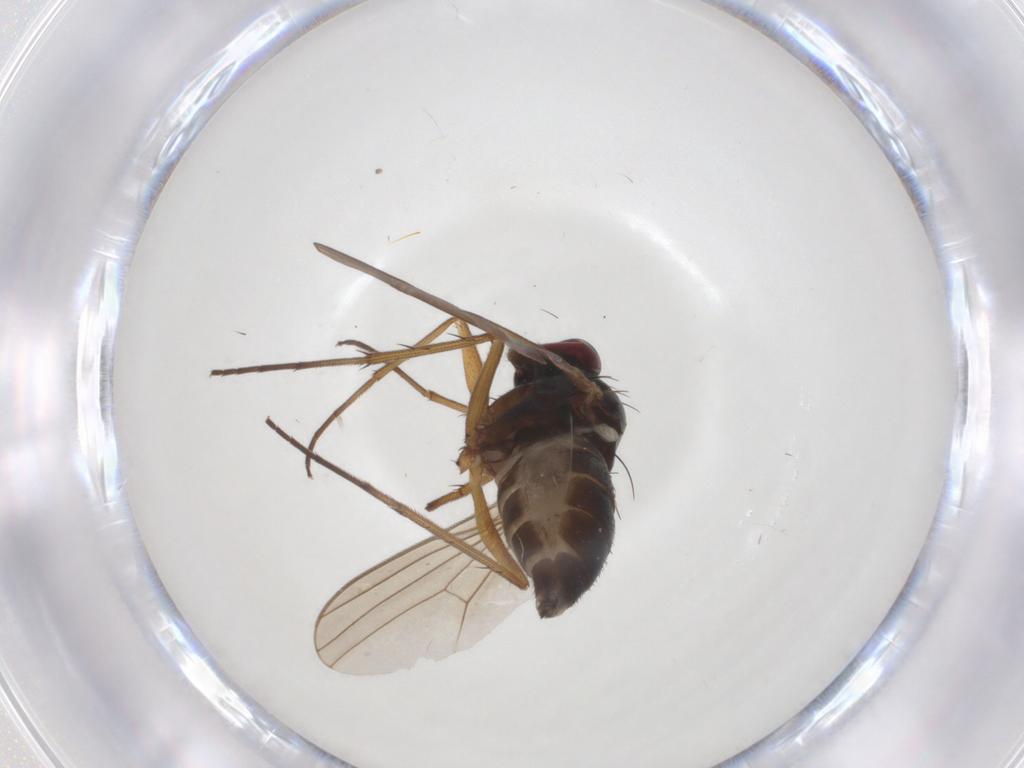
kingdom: Animalia
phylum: Arthropoda
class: Insecta
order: Diptera
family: Dolichopodidae
